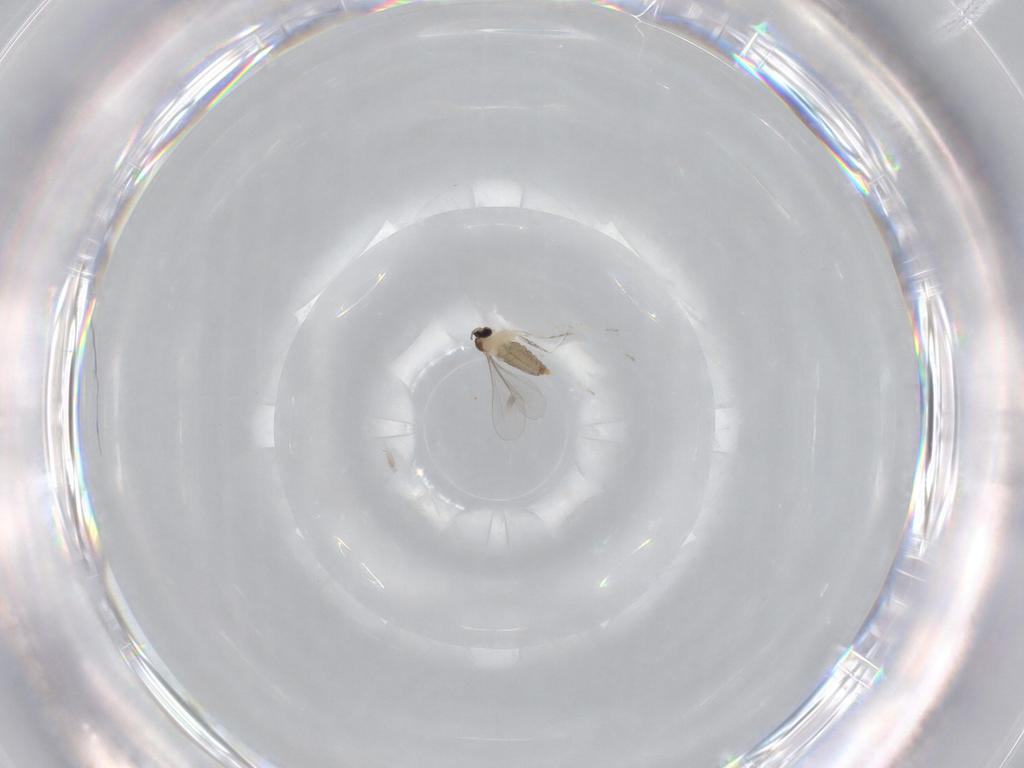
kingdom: Animalia
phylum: Arthropoda
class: Insecta
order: Diptera
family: Cecidomyiidae
